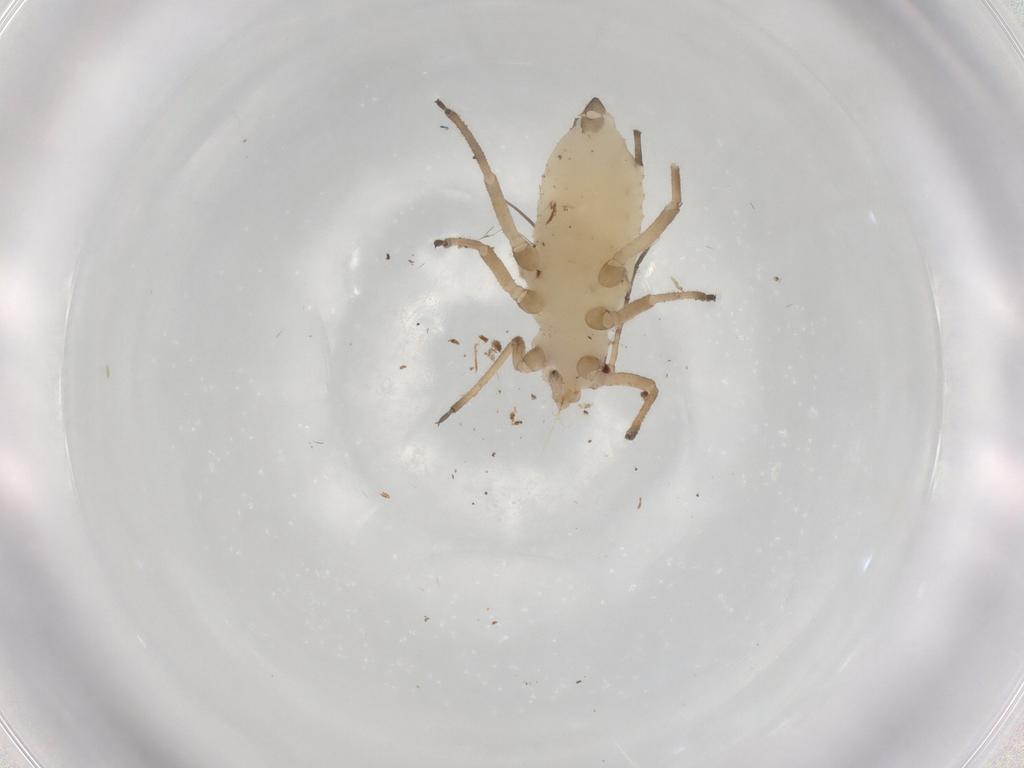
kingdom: Animalia
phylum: Arthropoda
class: Insecta
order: Hemiptera
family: Aphididae
